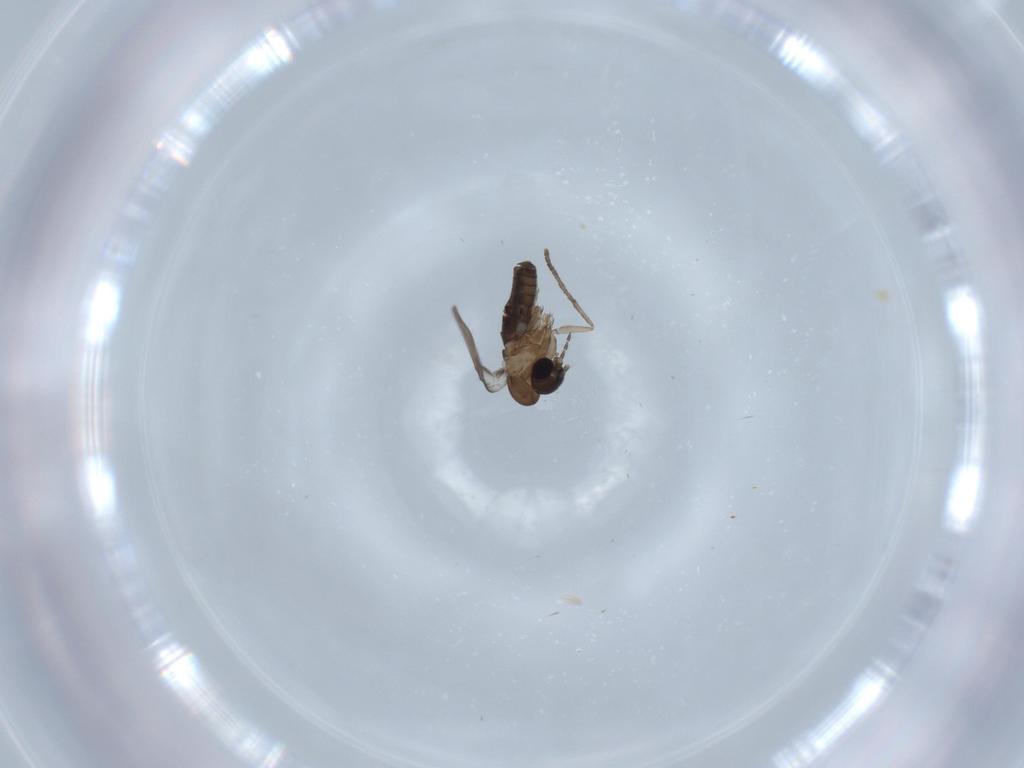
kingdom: Animalia
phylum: Arthropoda
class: Insecta
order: Diptera
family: Psychodidae
